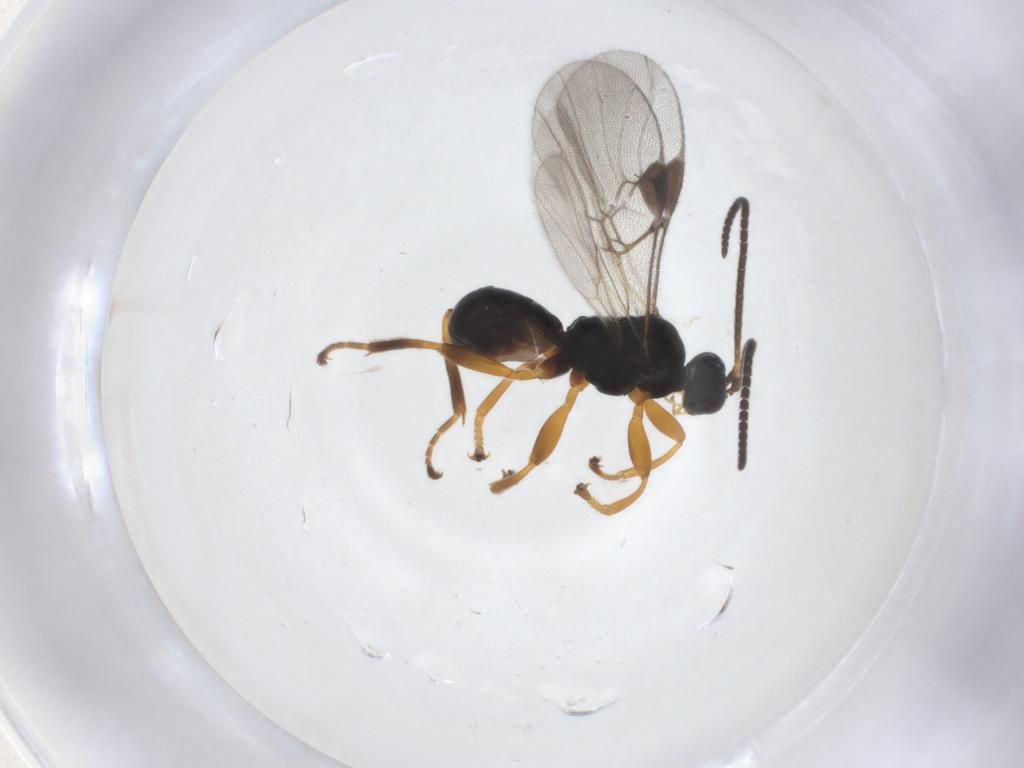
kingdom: Animalia
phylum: Arthropoda
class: Insecta
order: Hymenoptera
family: Braconidae
